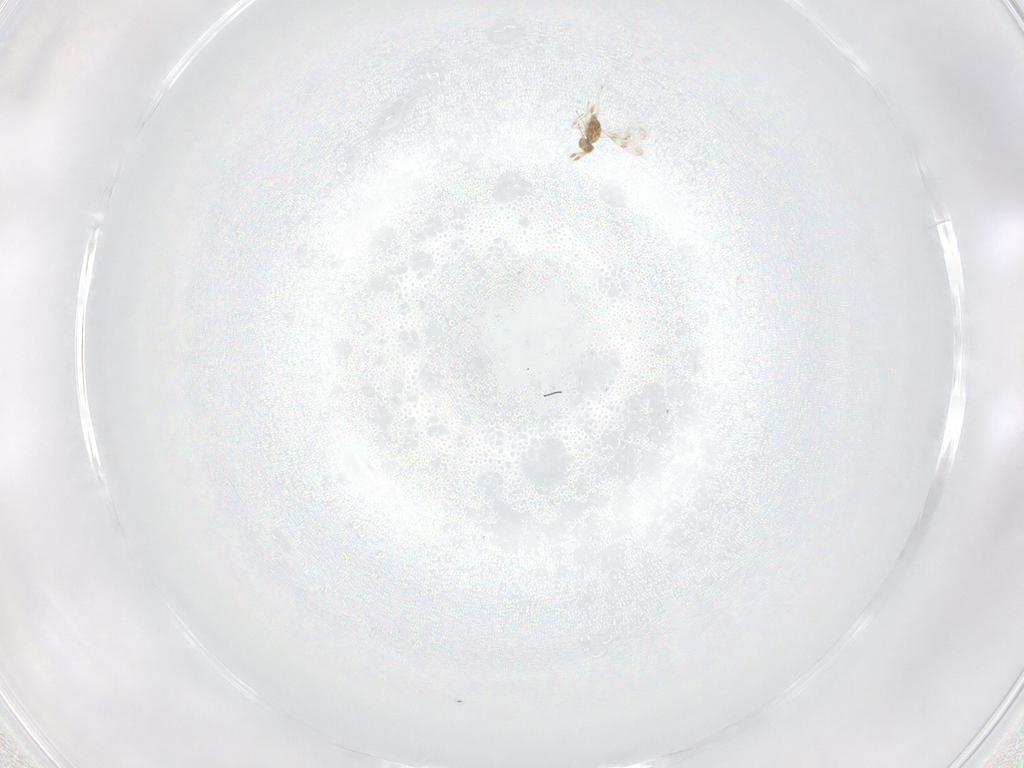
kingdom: Animalia
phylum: Arthropoda
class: Insecta
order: Hymenoptera
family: Eulophidae
